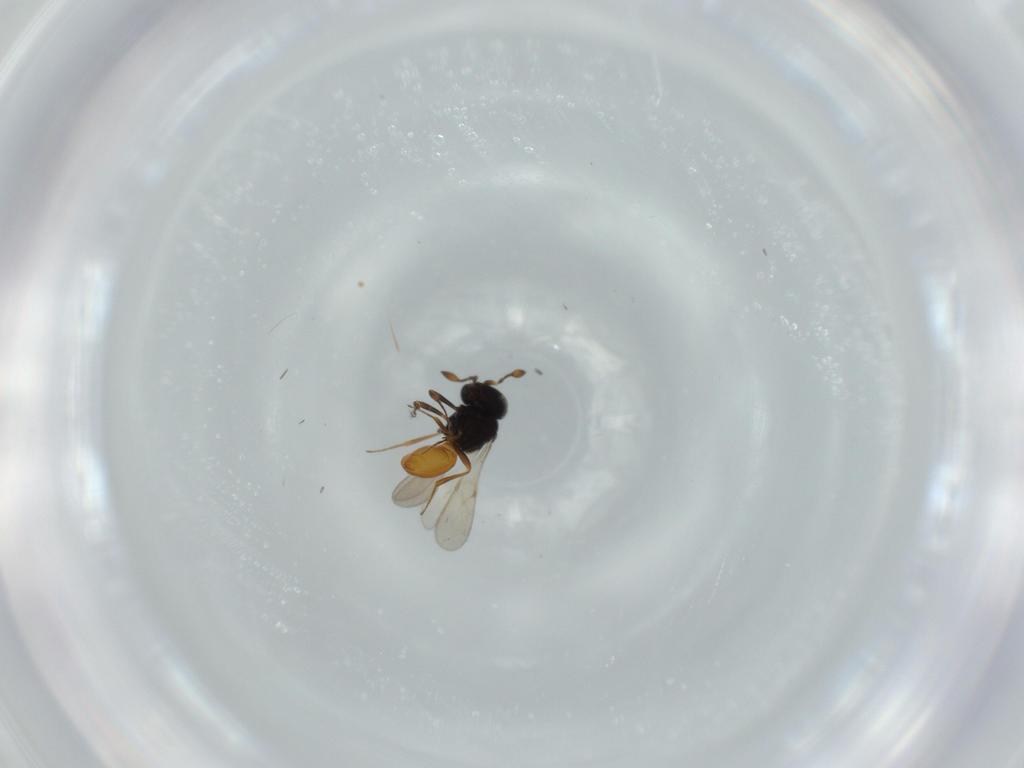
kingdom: Animalia
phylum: Arthropoda
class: Insecta
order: Hymenoptera
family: Scelionidae
